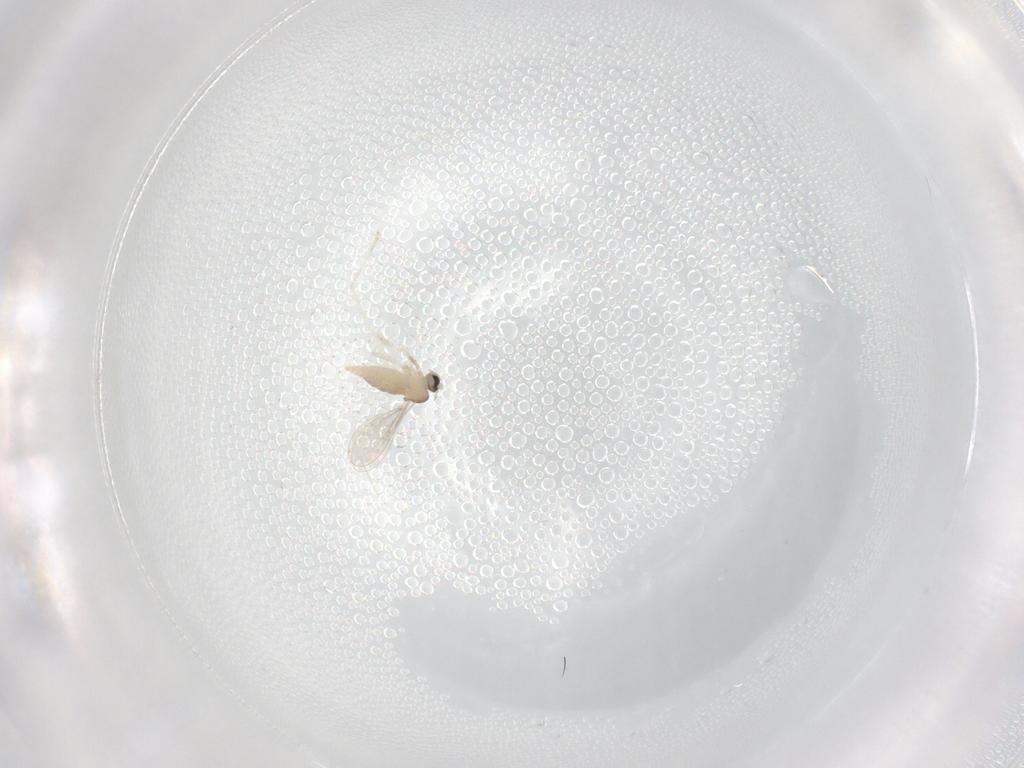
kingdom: Animalia
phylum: Arthropoda
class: Insecta
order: Diptera
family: Cecidomyiidae
